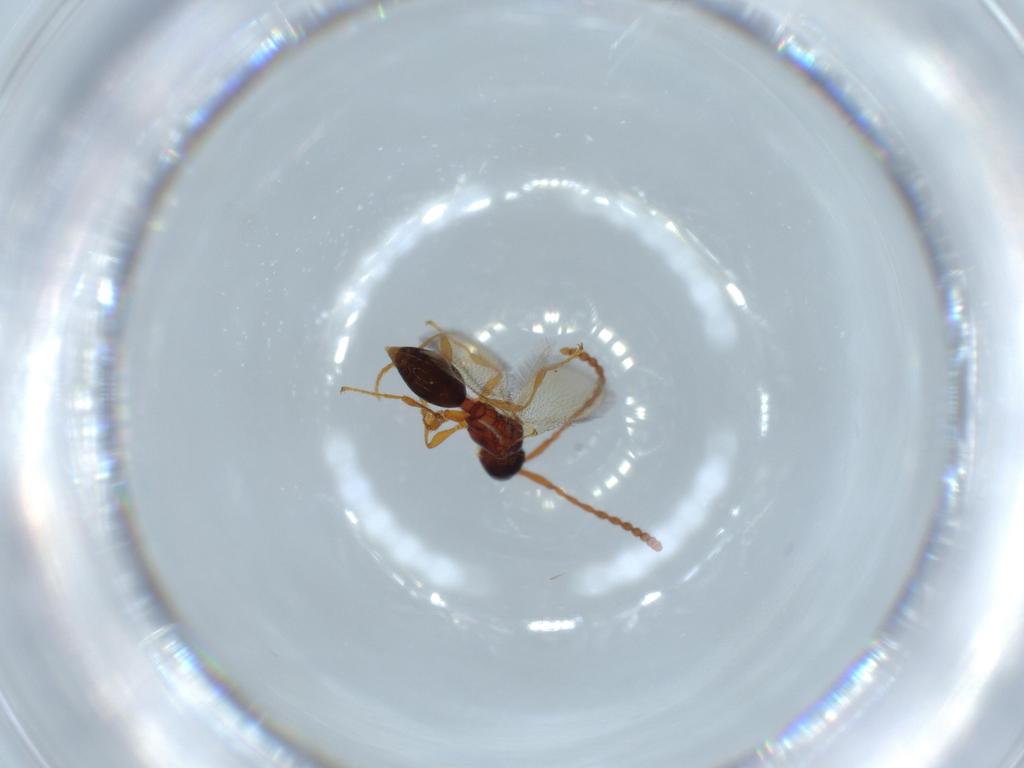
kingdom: Animalia
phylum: Arthropoda
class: Insecta
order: Hymenoptera
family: Diapriidae
